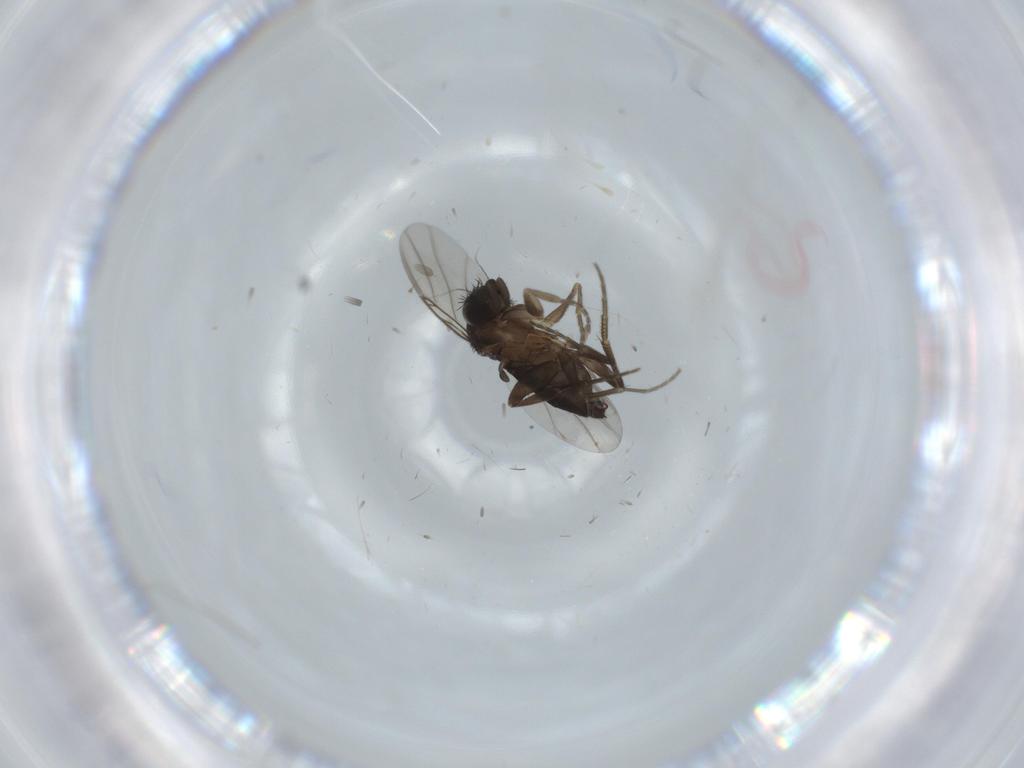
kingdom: Animalia
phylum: Arthropoda
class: Insecta
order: Diptera
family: Phoridae
